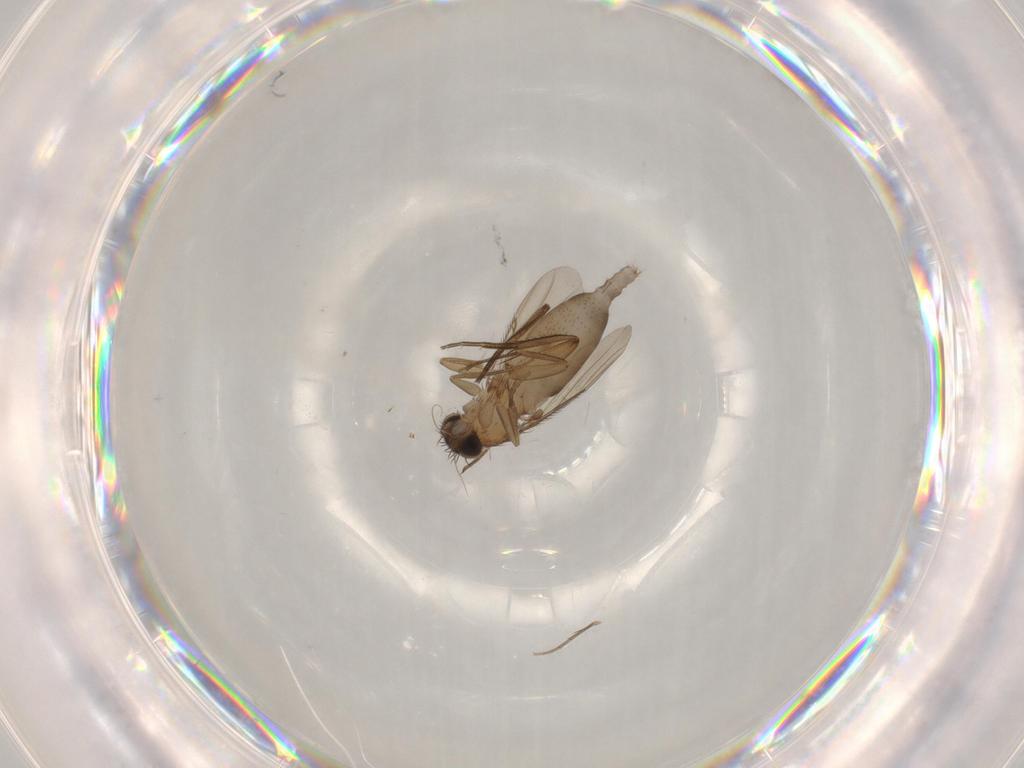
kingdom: Animalia
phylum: Arthropoda
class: Insecta
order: Diptera
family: Phoridae
